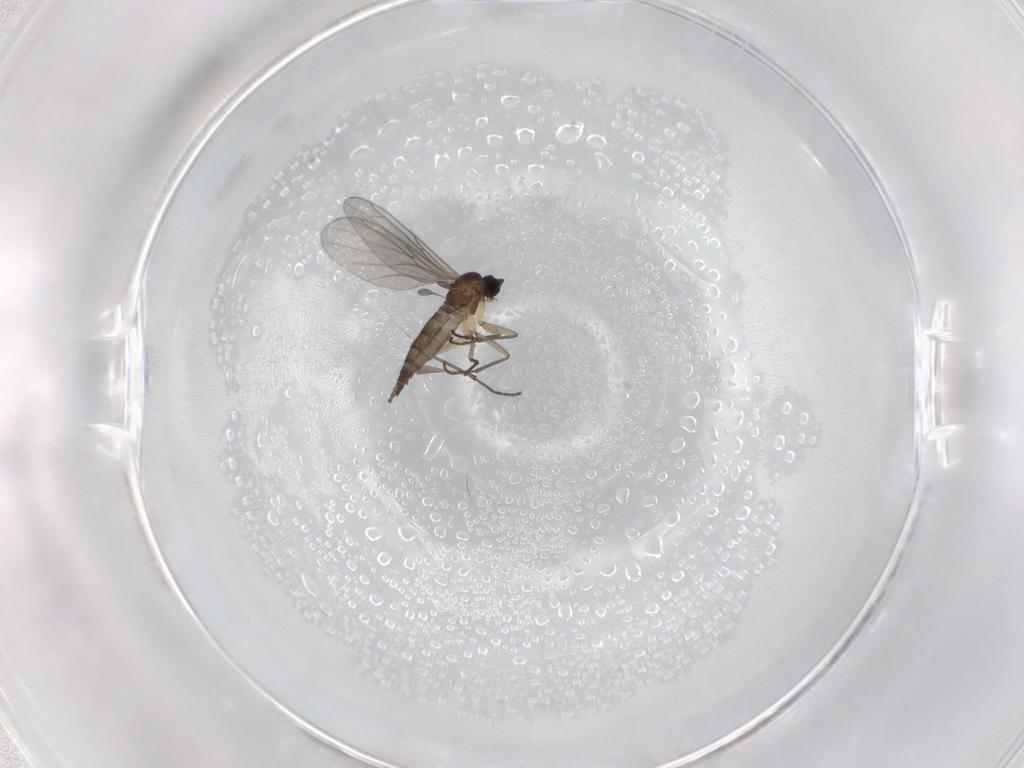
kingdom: Animalia
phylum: Arthropoda
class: Insecta
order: Diptera
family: Sciaridae
